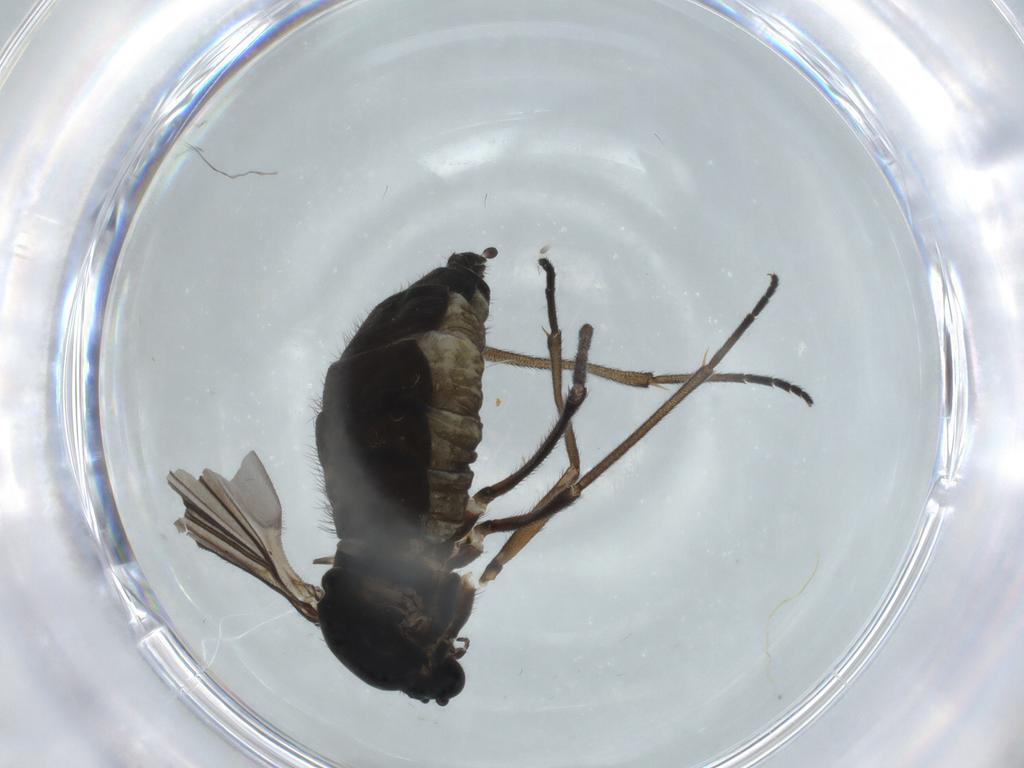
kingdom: Animalia
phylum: Arthropoda
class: Insecta
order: Diptera
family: Sciaridae
